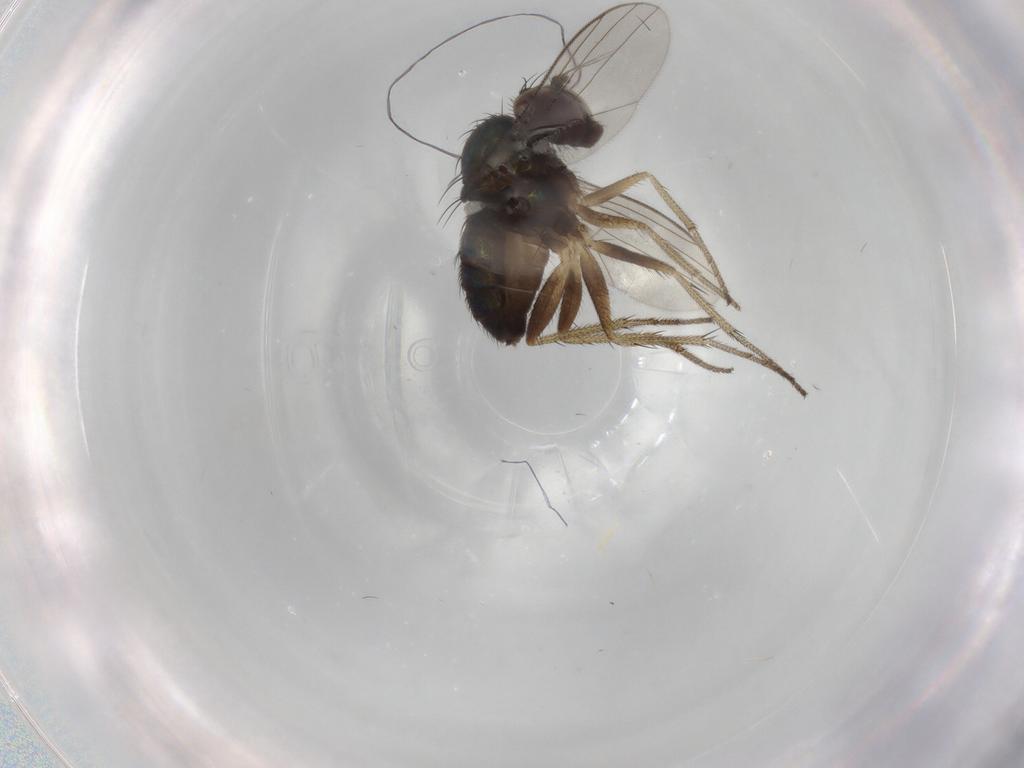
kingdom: Animalia
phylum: Arthropoda
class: Insecta
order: Diptera
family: Dolichopodidae
